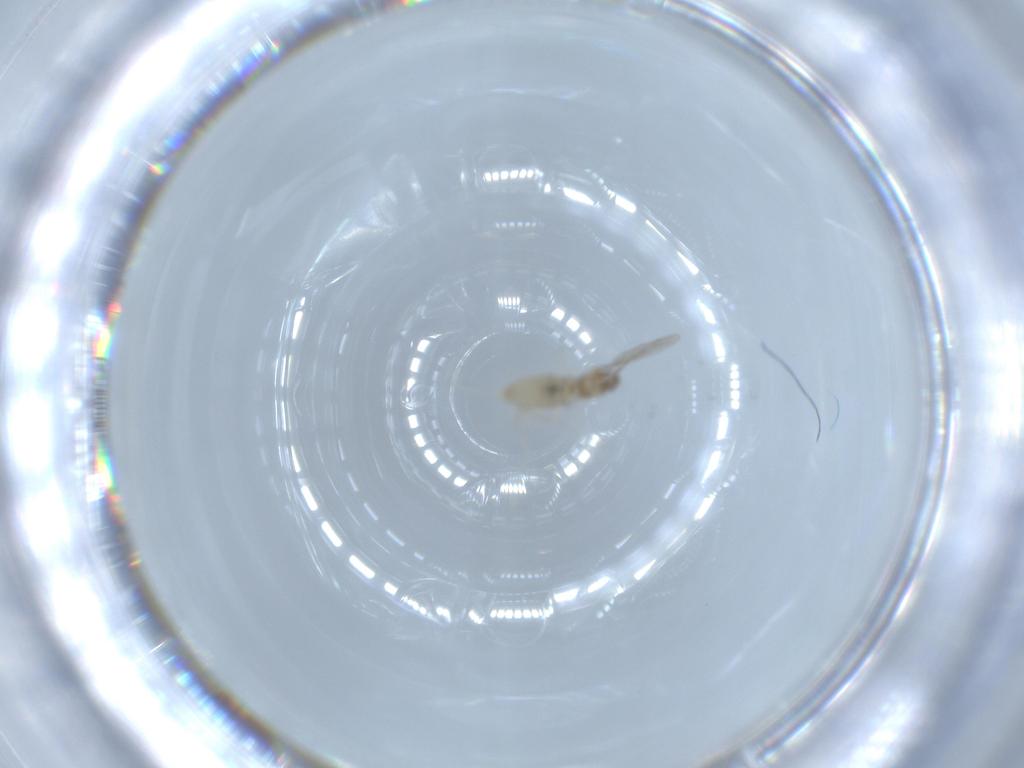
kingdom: Animalia
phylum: Arthropoda
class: Insecta
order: Diptera
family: Cecidomyiidae
